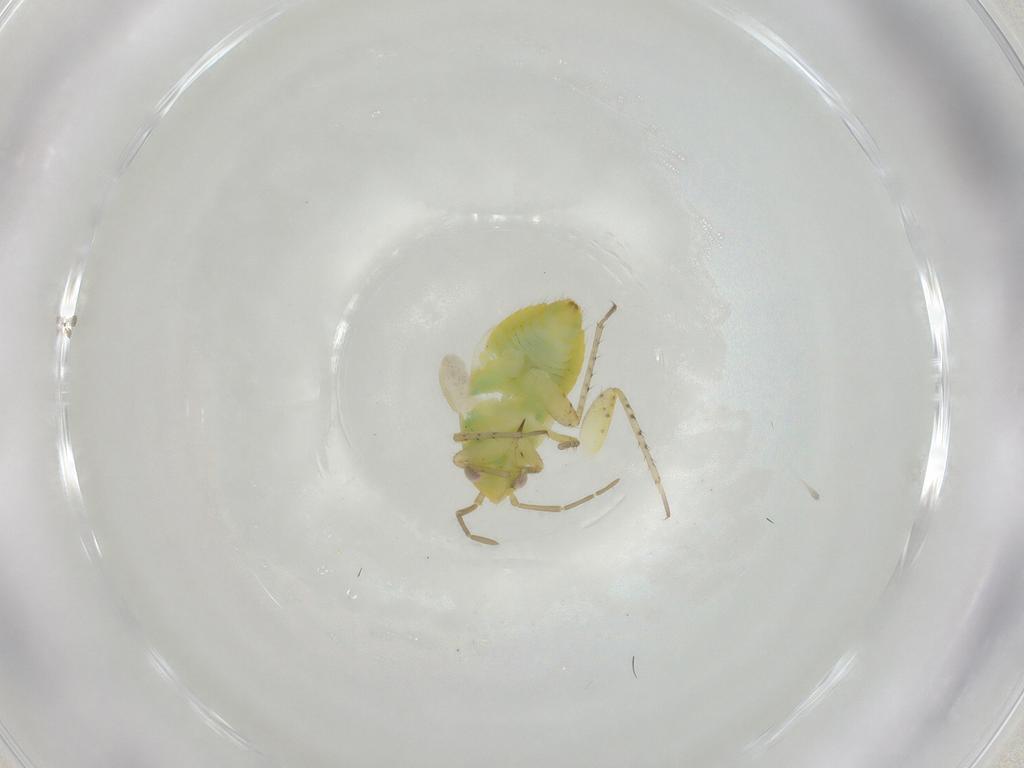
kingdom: Animalia
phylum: Arthropoda
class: Insecta
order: Hemiptera
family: Miridae
